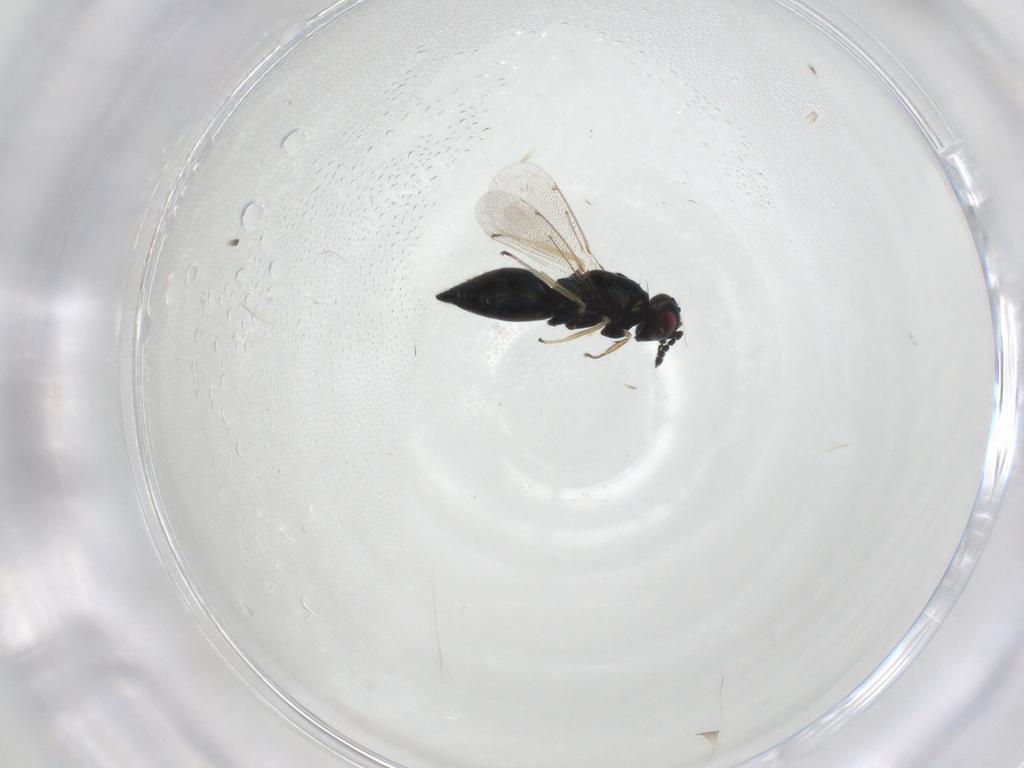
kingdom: Animalia
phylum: Arthropoda
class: Insecta
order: Hymenoptera
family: Eulophidae
